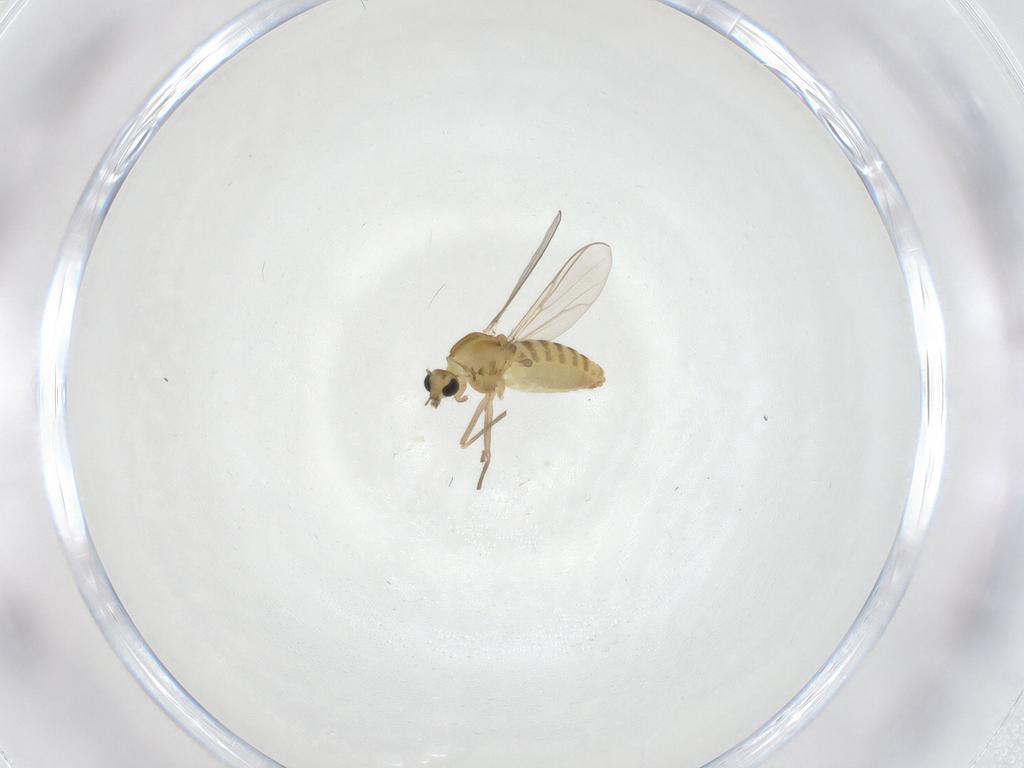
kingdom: Animalia
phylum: Arthropoda
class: Insecta
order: Diptera
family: Chironomidae
